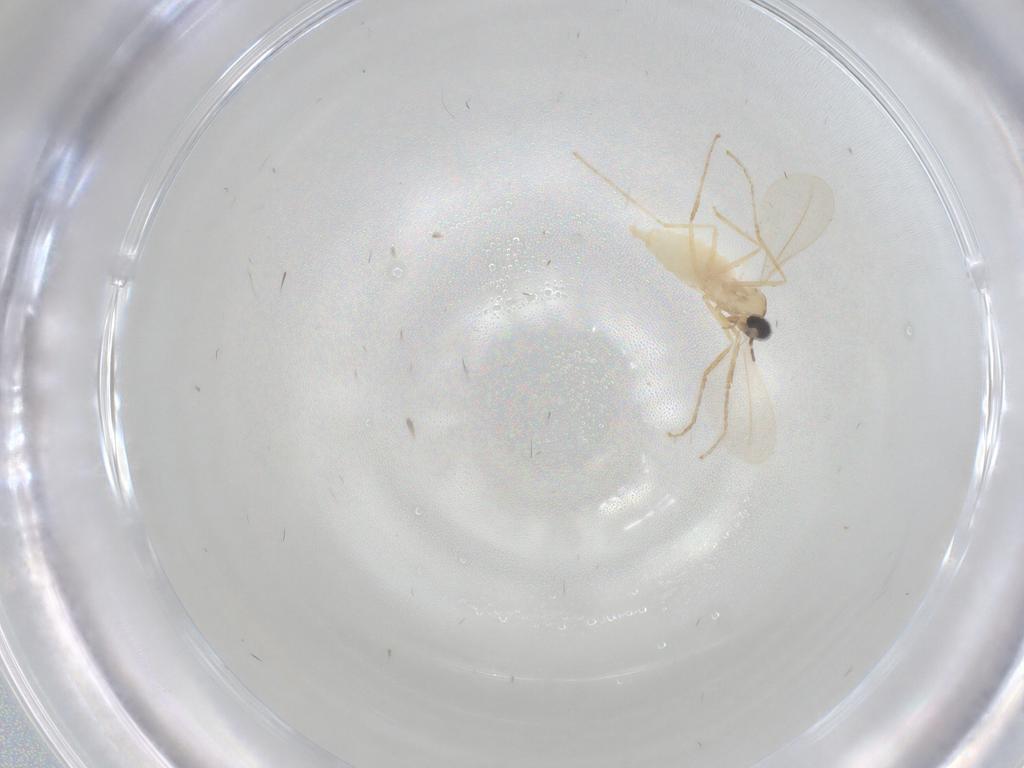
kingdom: Animalia
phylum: Arthropoda
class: Insecta
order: Diptera
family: Cecidomyiidae
